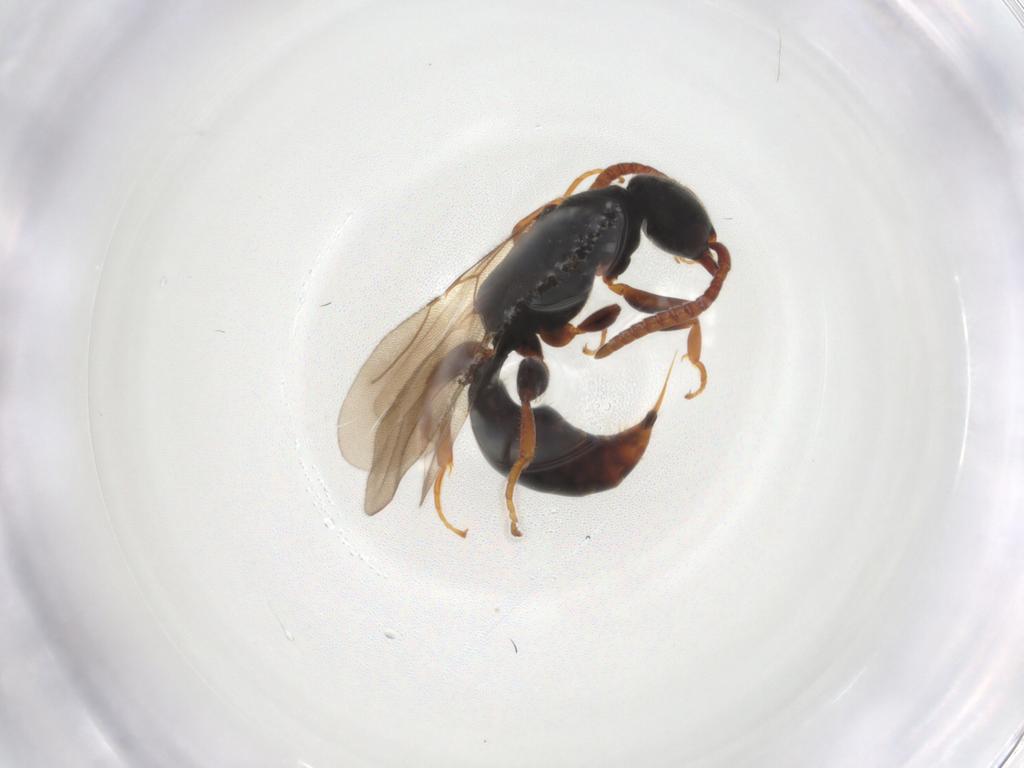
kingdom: Animalia
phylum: Arthropoda
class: Insecta
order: Hymenoptera
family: Bethylidae
